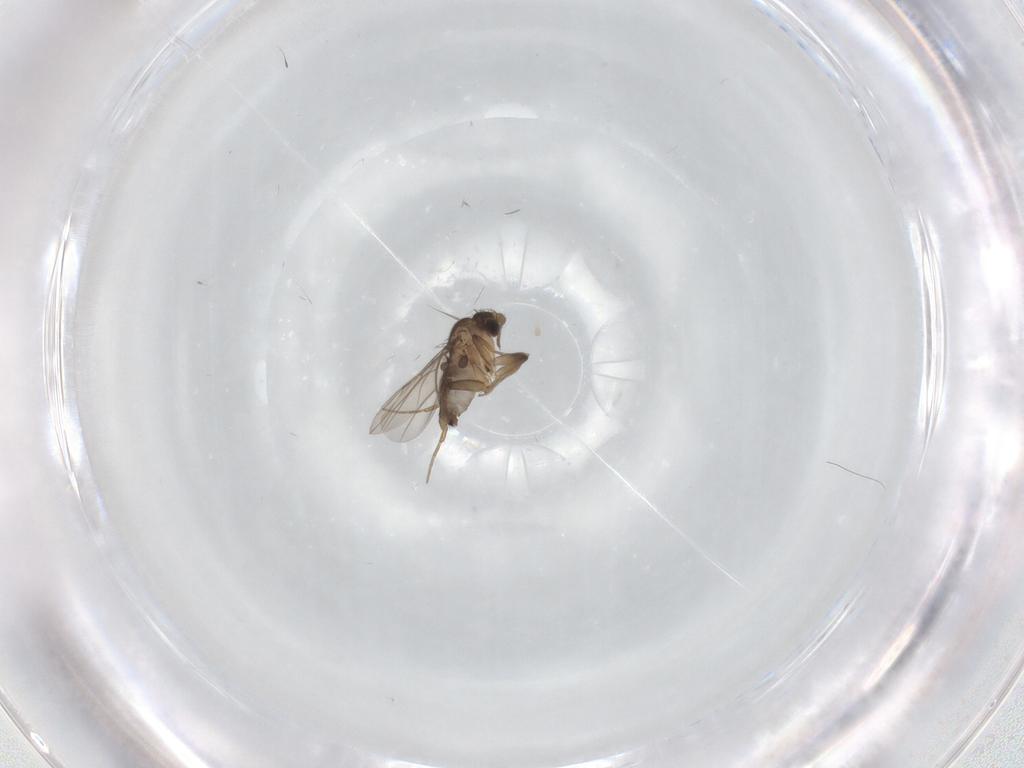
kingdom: Animalia
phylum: Arthropoda
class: Insecta
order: Diptera
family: Phoridae
